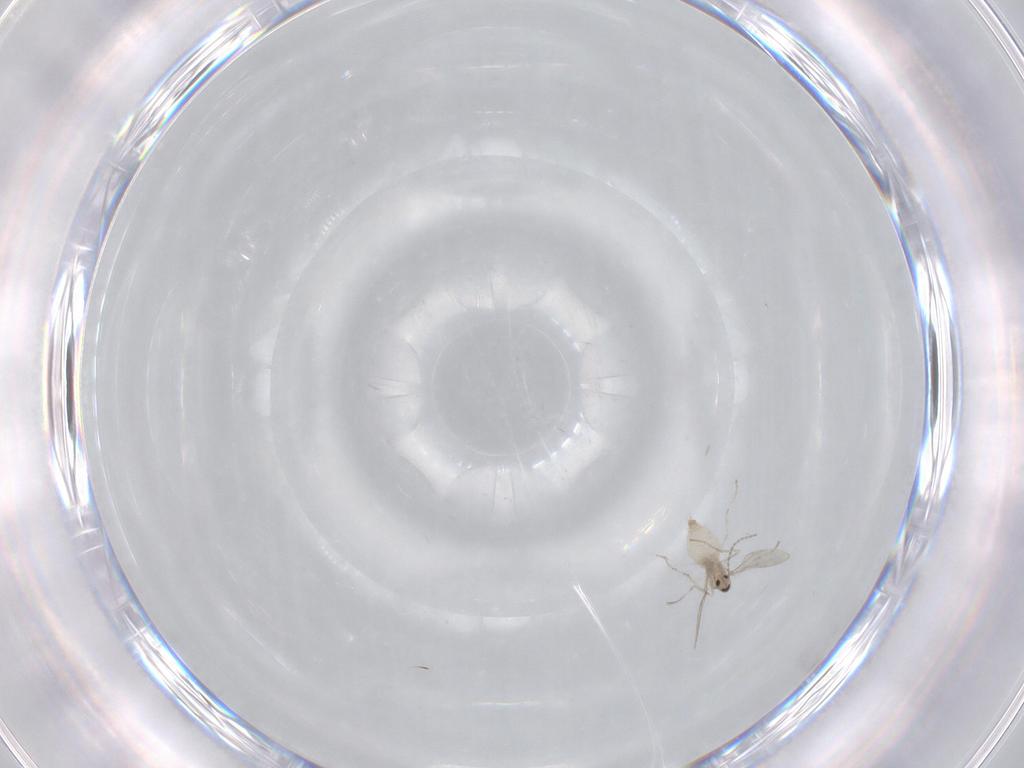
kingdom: Animalia
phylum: Arthropoda
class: Insecta
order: Diptera
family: Cecidomyiidae
